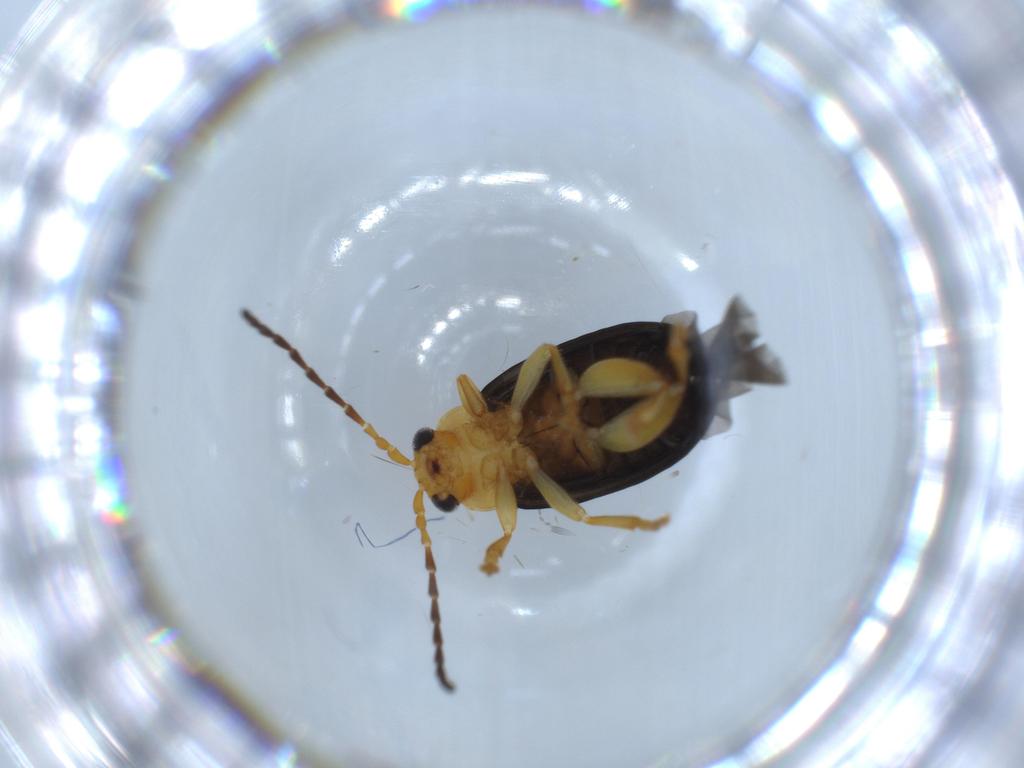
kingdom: Animalia
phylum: Arthropoda
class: Insecta
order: Coleoptera
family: Chrysomelidae
